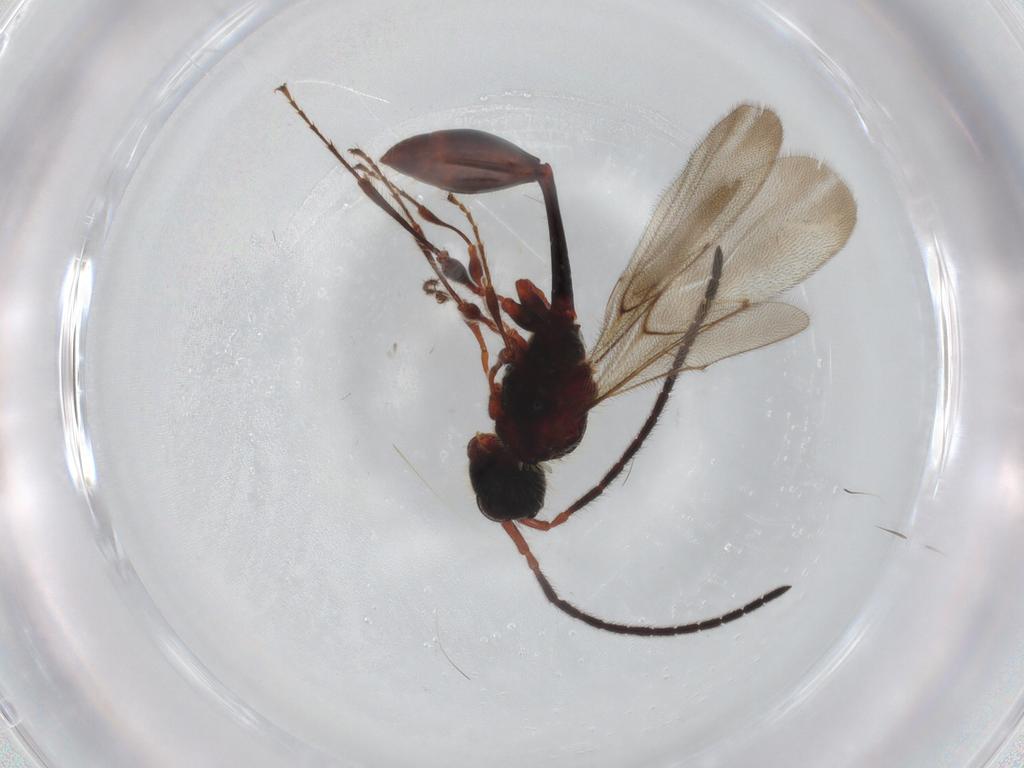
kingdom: Animalia
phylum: Arthropoda
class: Insecta
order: Hymenoptera
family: Diapriidae
